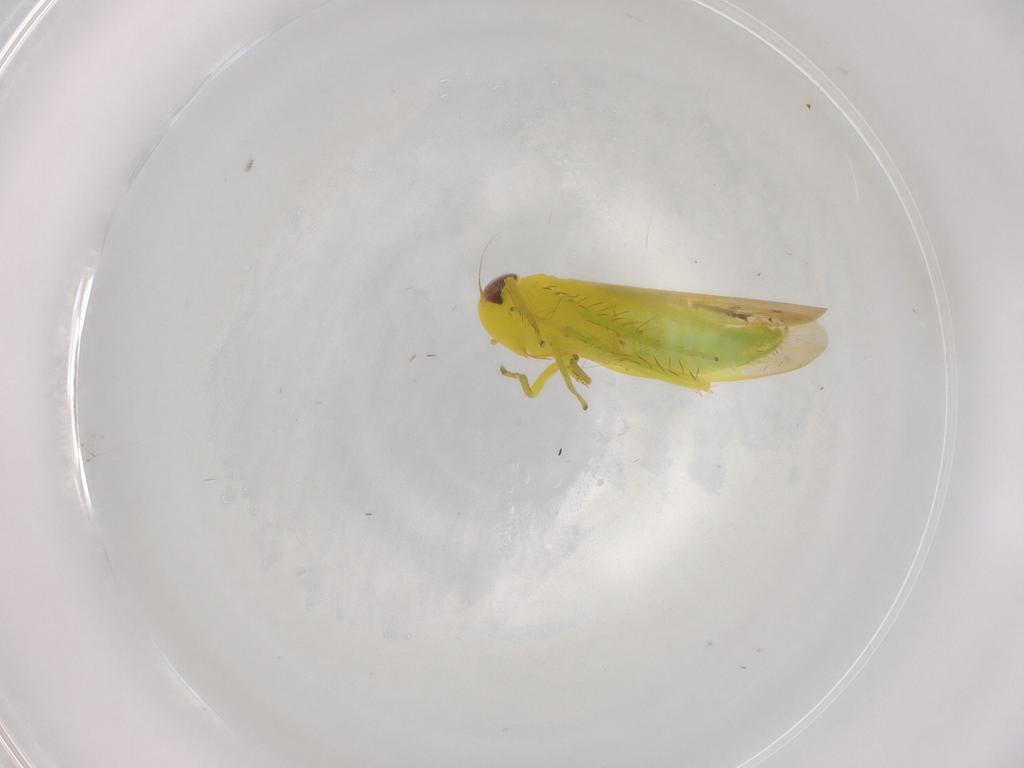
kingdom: Animalia
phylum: Arthropoda
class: Insecta
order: Hemiptera
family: Cicadellidae
